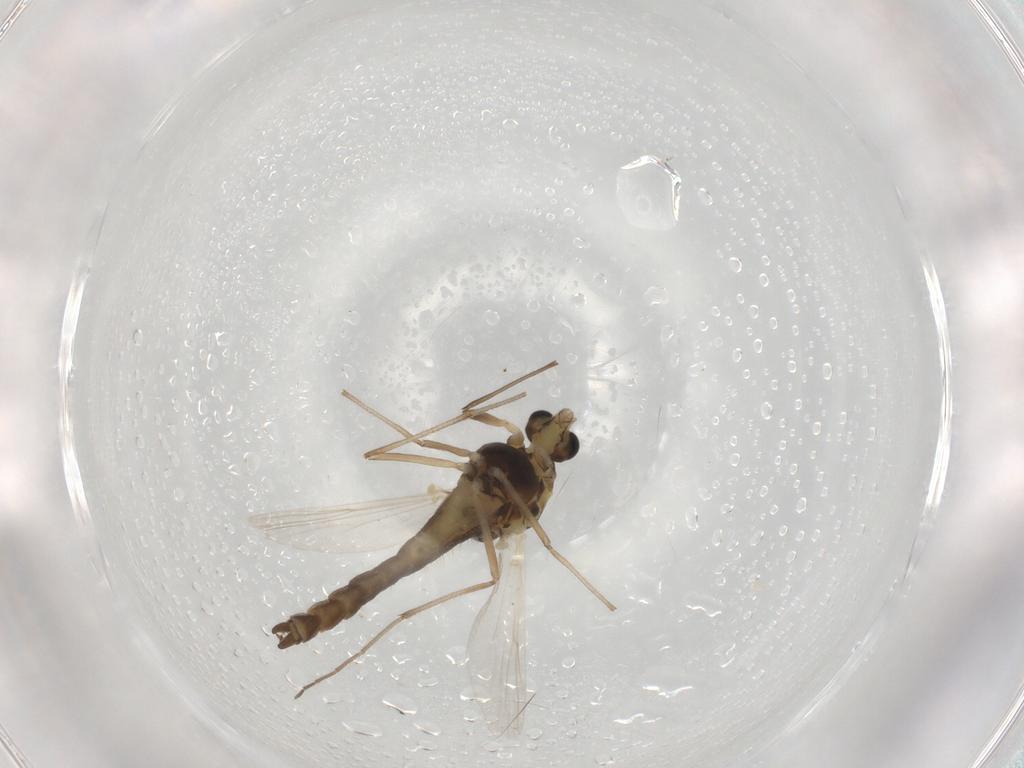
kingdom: Animalia
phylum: Arthropoda
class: Insecta
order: Diptera
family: Chironomidae
